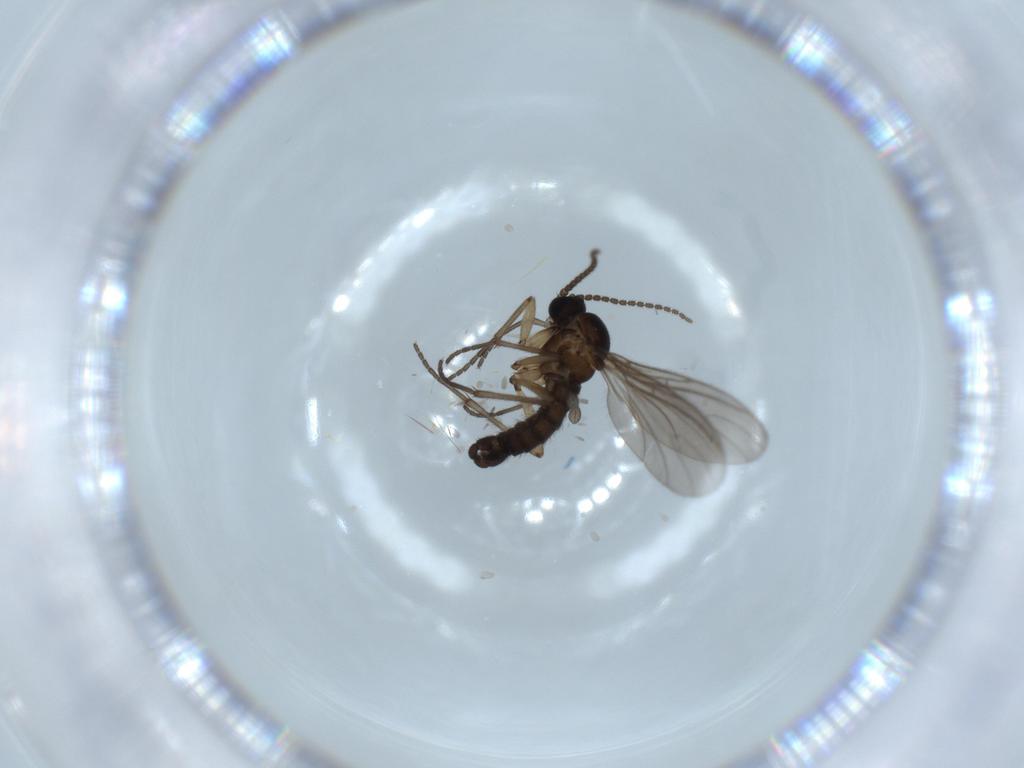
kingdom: Animalia
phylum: Arthropoda
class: Insecta
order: Diptera
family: Sciaridae
